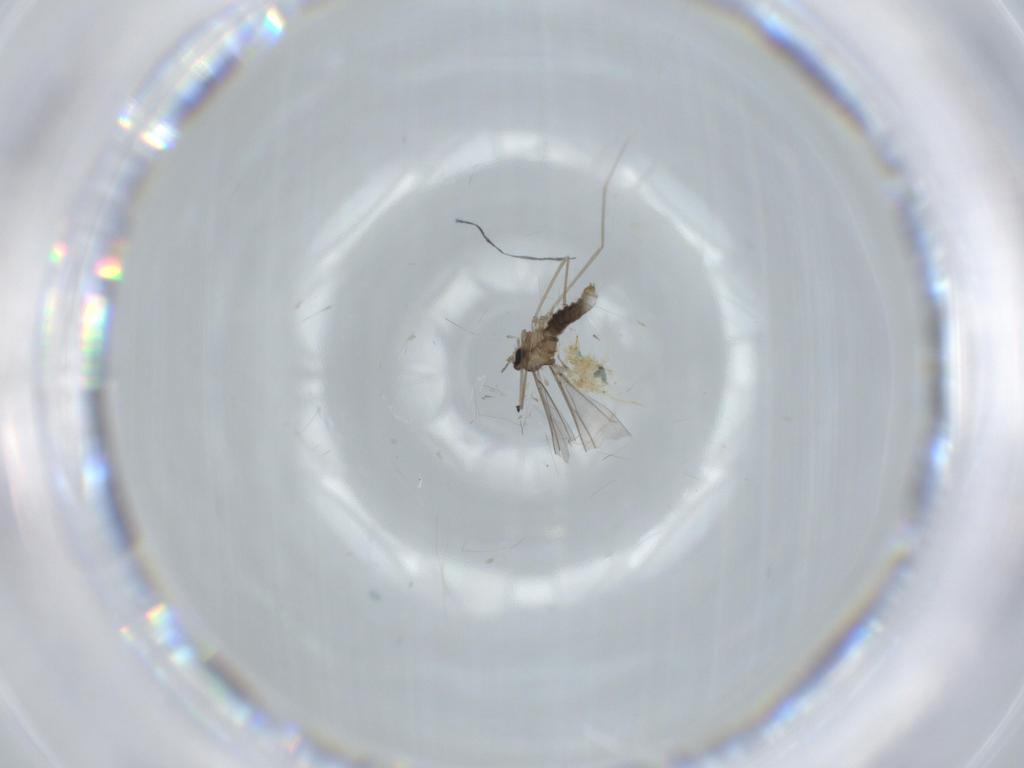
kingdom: Animalia
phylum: Arthropoda
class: Insecta
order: Diptera
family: Cecidomyiidae
